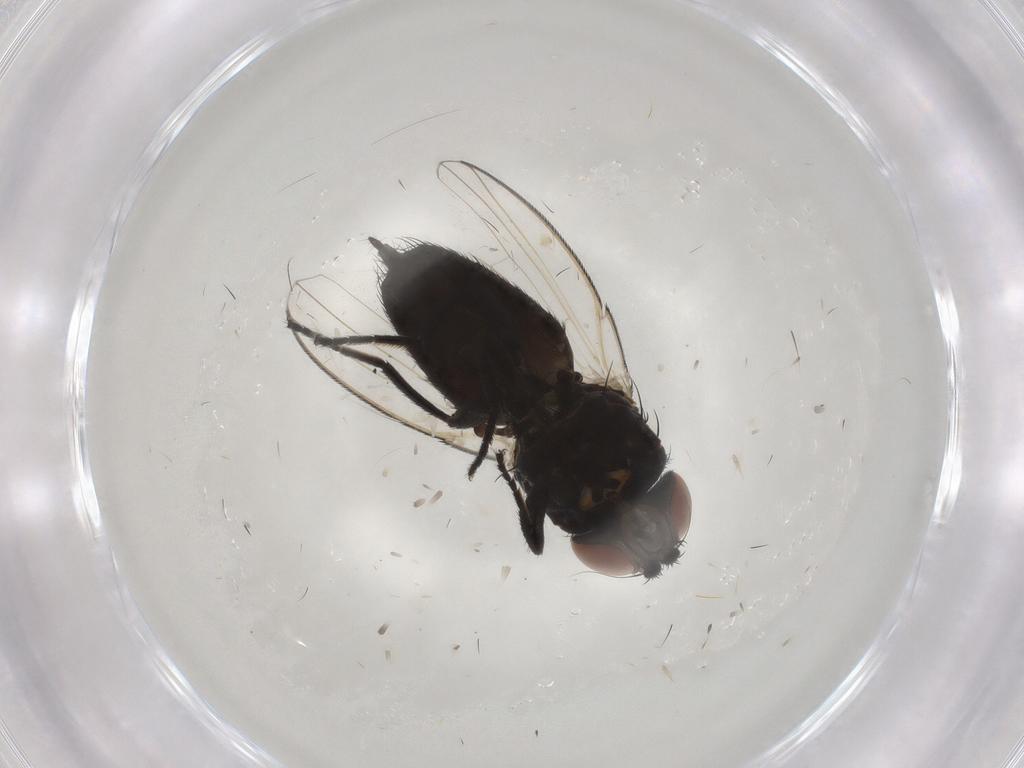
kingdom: Animalia
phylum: Arthropoda
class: Insecta
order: Diptera
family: Milichiidae
